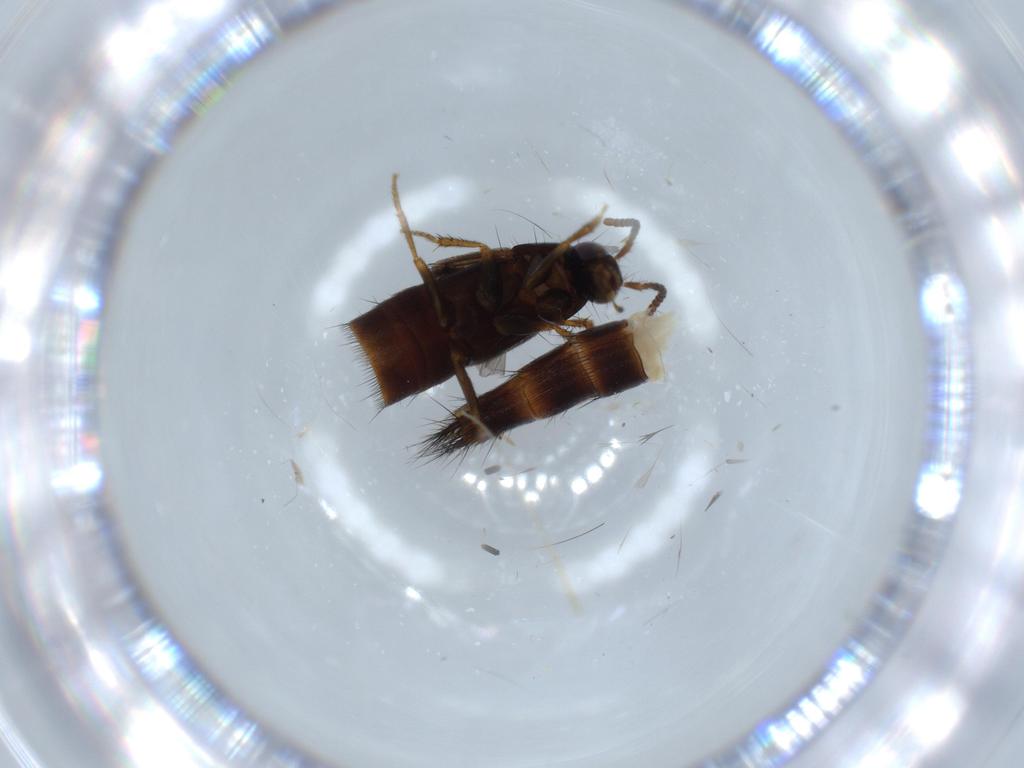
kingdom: Animalia
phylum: Arthropoda
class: Insecta
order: Coleoptera
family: Staphylinidae
